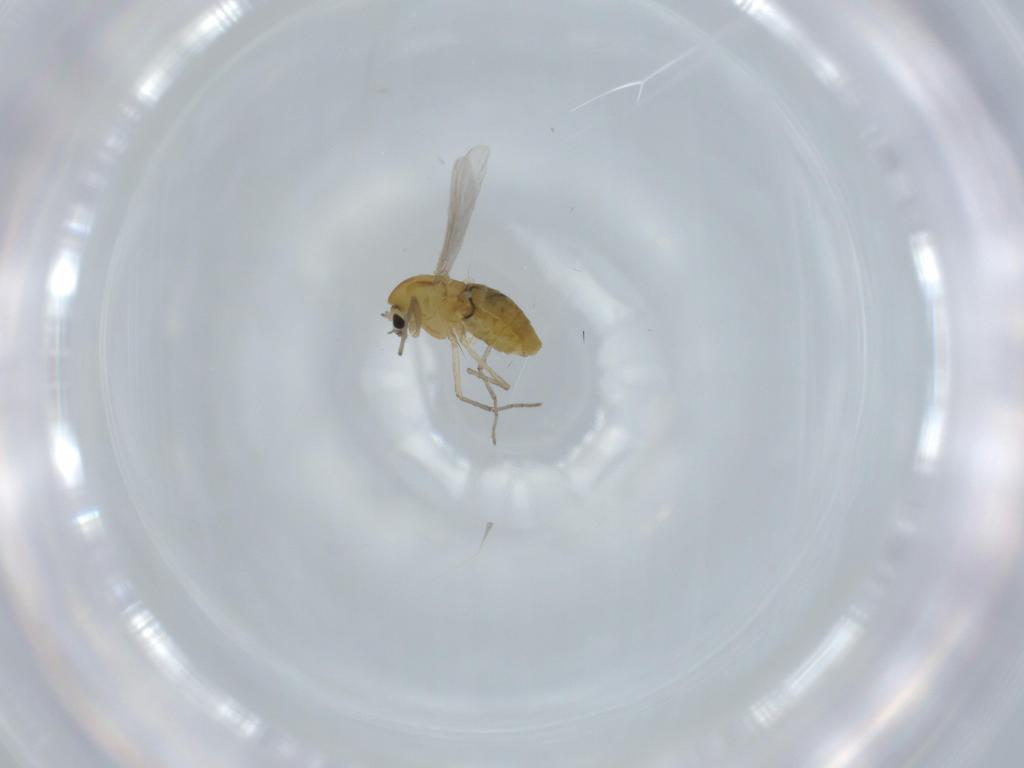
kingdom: Animalia
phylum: Arthropoda
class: Insecta
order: Diptera
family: Chironomidae
